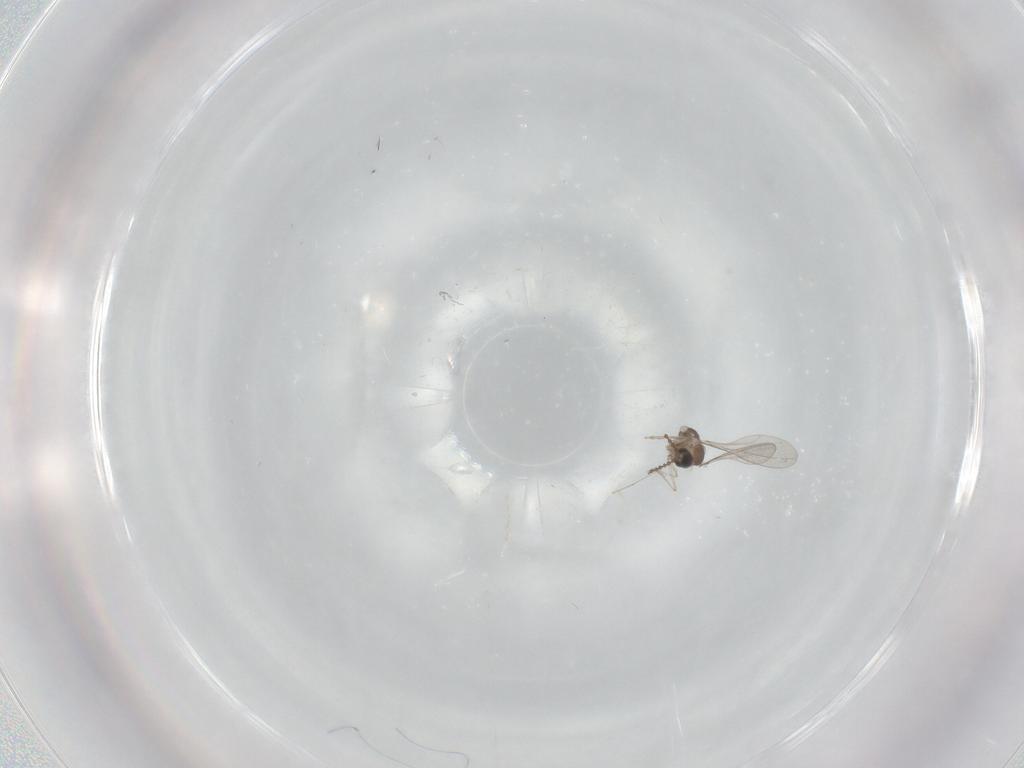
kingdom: Animalia
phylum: Arthropoda
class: Insecta
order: Diptera
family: Cecidomyiidae
